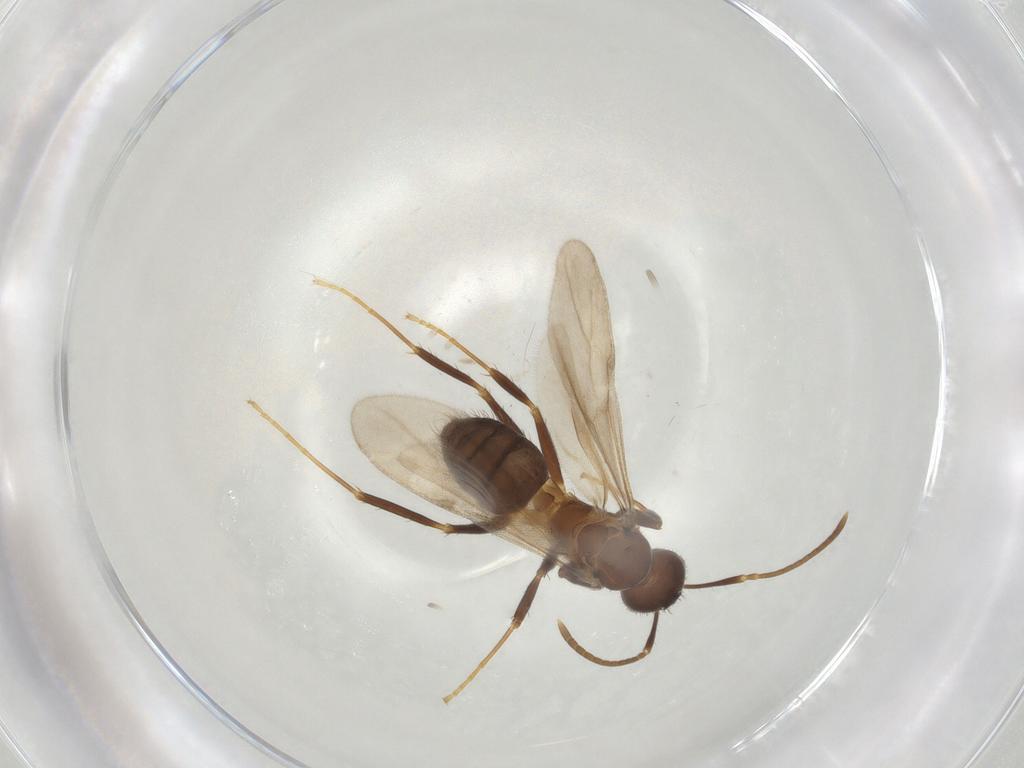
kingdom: Animalia
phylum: Arthropoda
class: Insecta
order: Hymenoptera
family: Formicidae
